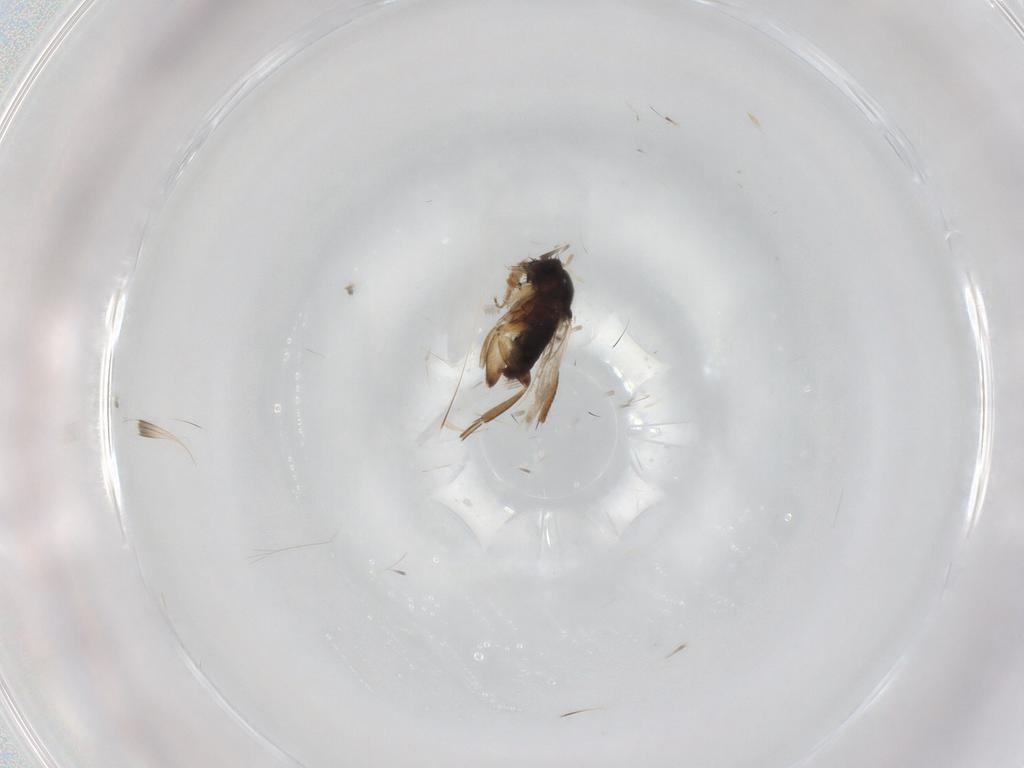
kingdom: Animalia
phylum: Arthropoda
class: Insecta
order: Diptera
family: Phoridae
